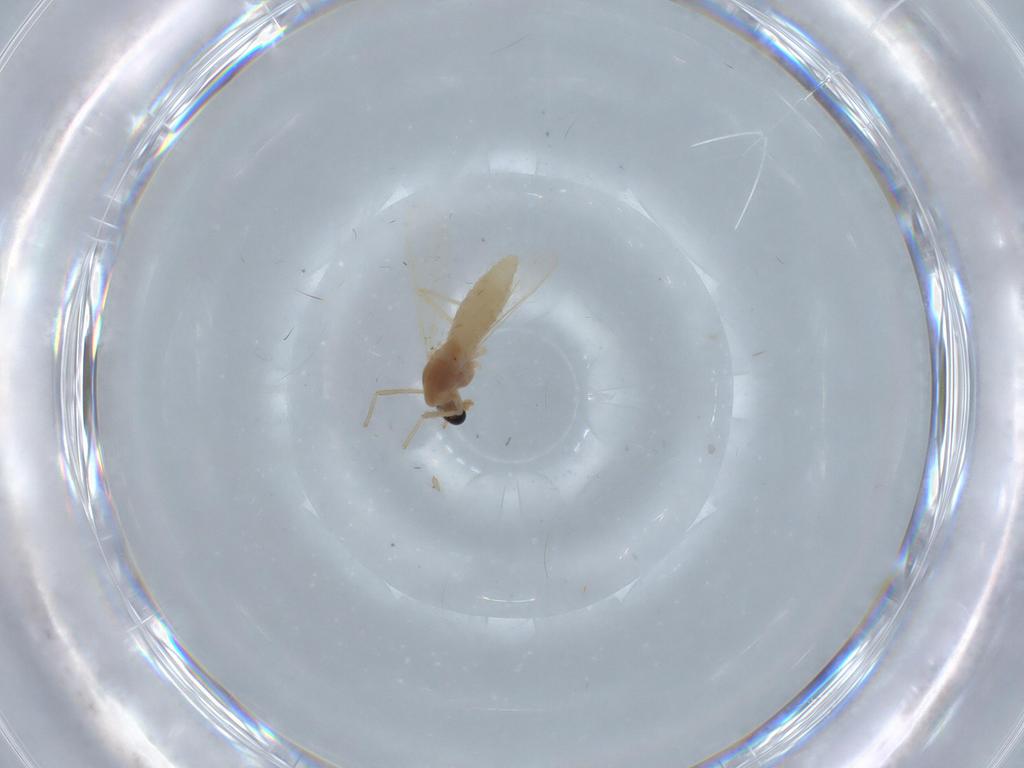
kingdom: Animalia
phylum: Arthropoda
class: Insecta
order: Diptera
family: Chironomidae
